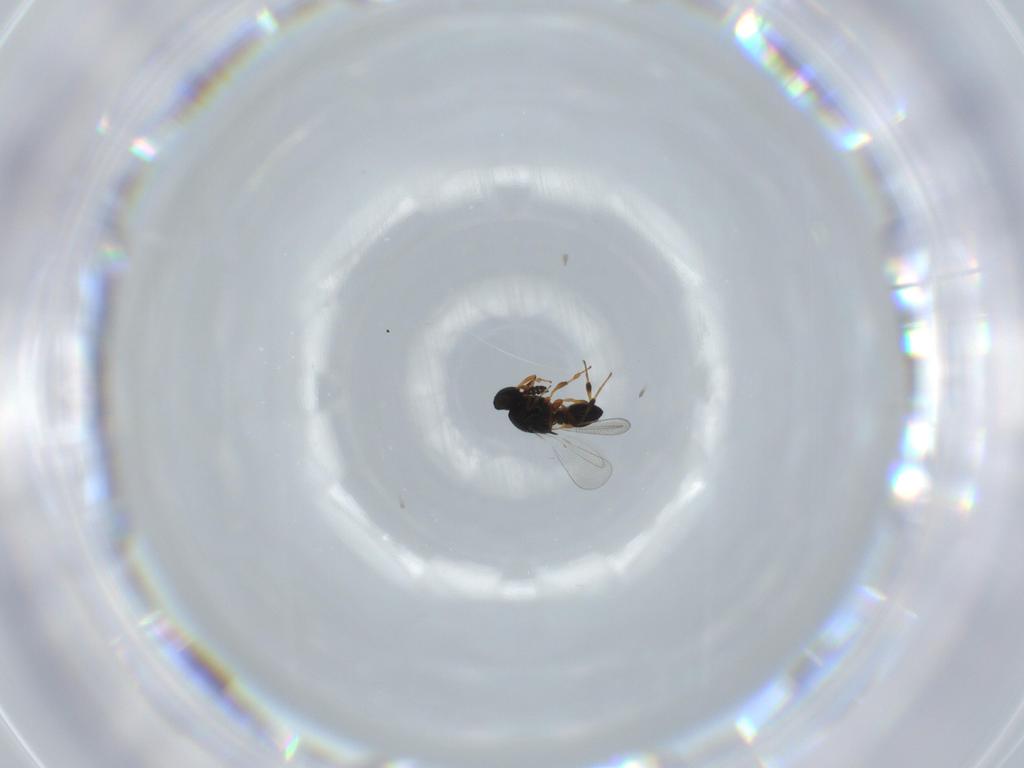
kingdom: Animalia
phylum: Arthropoda
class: Insecta
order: Hymenoptera
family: Platygastridae
